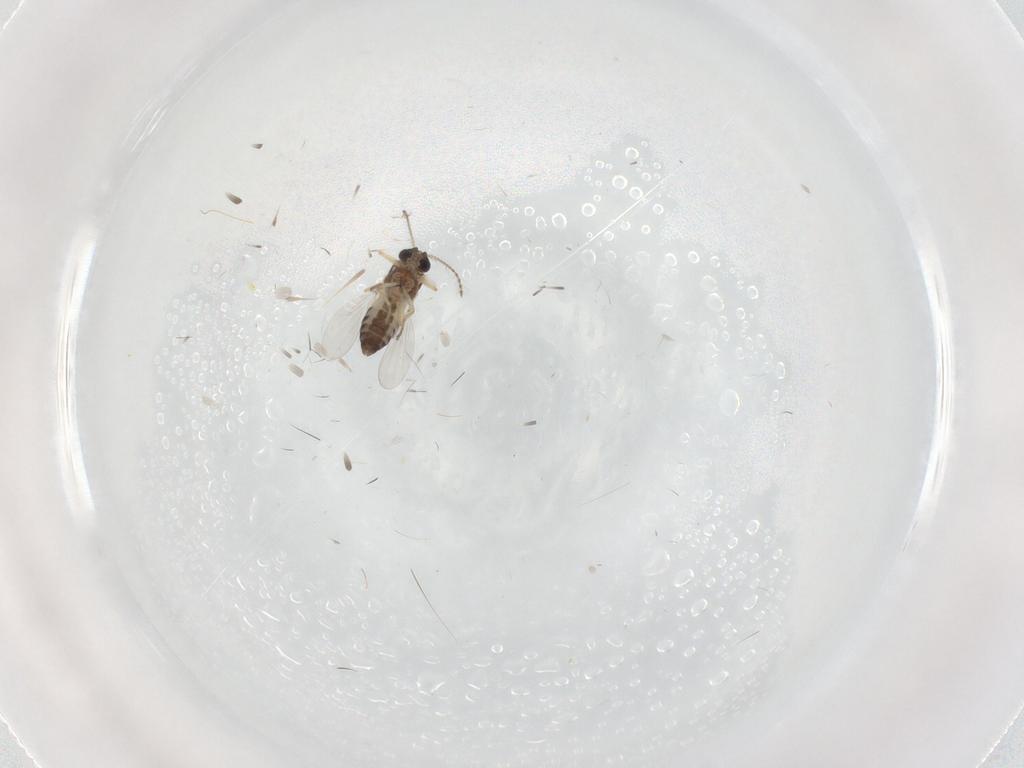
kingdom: Animalia
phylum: Arthropoda
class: Insecta
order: Diptera
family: Ceratopogonidae
